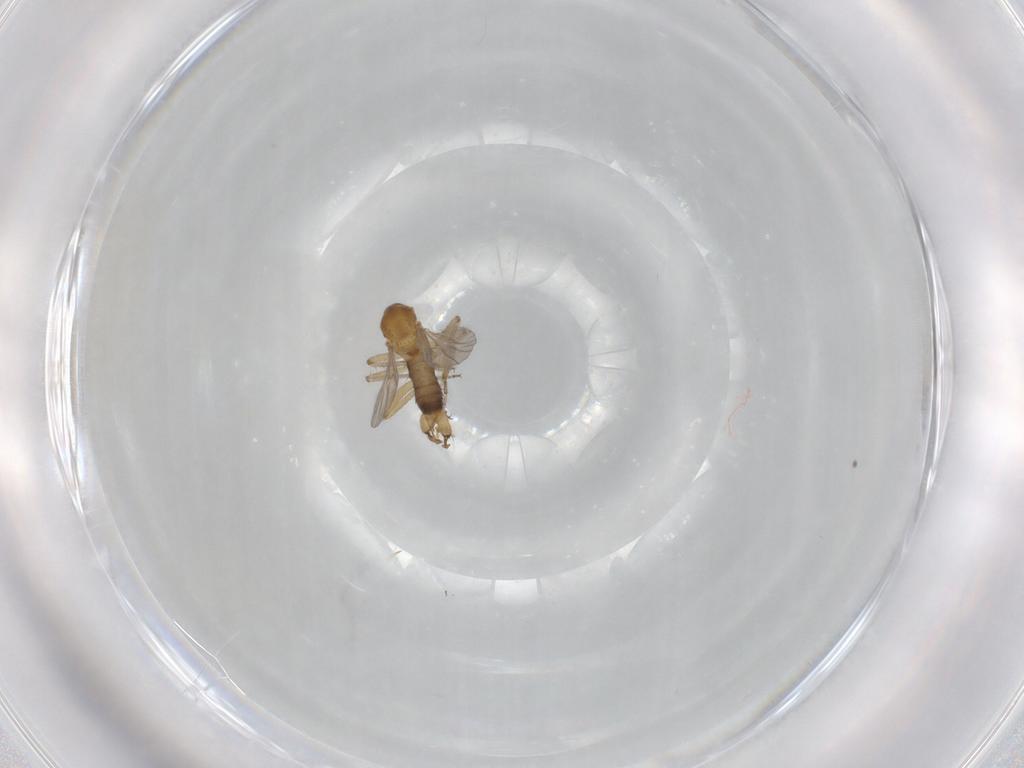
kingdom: Animalia
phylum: Arthropoda
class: Insecta
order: Diptera
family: Ceratopogonidae
